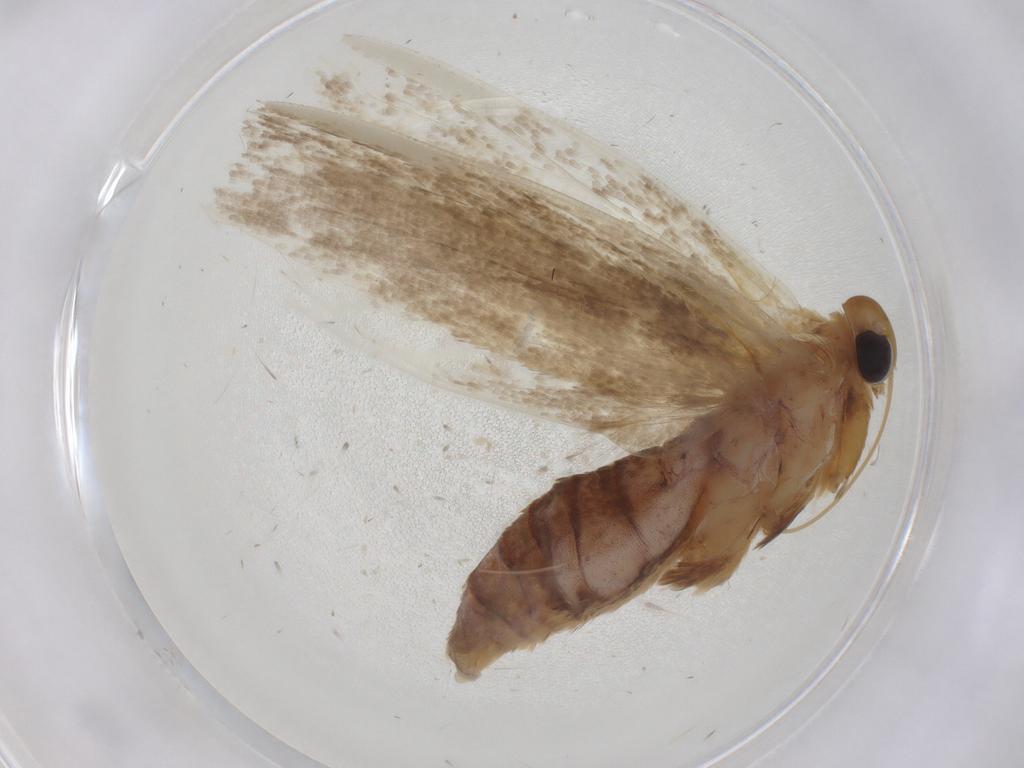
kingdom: Animalia
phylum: Arthropoda
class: Insecta
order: Lepidoptera
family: Blastobasidae
